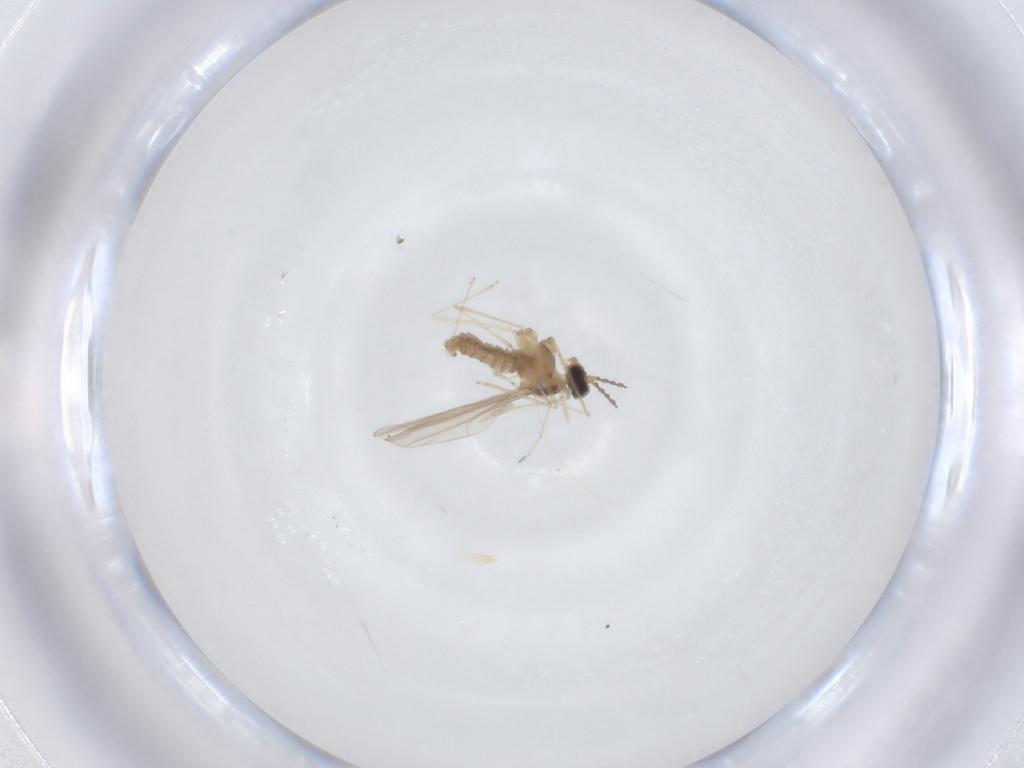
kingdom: Animalia
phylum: Arthropoda
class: Insecta
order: Diptera
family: Cecidomyiidae
